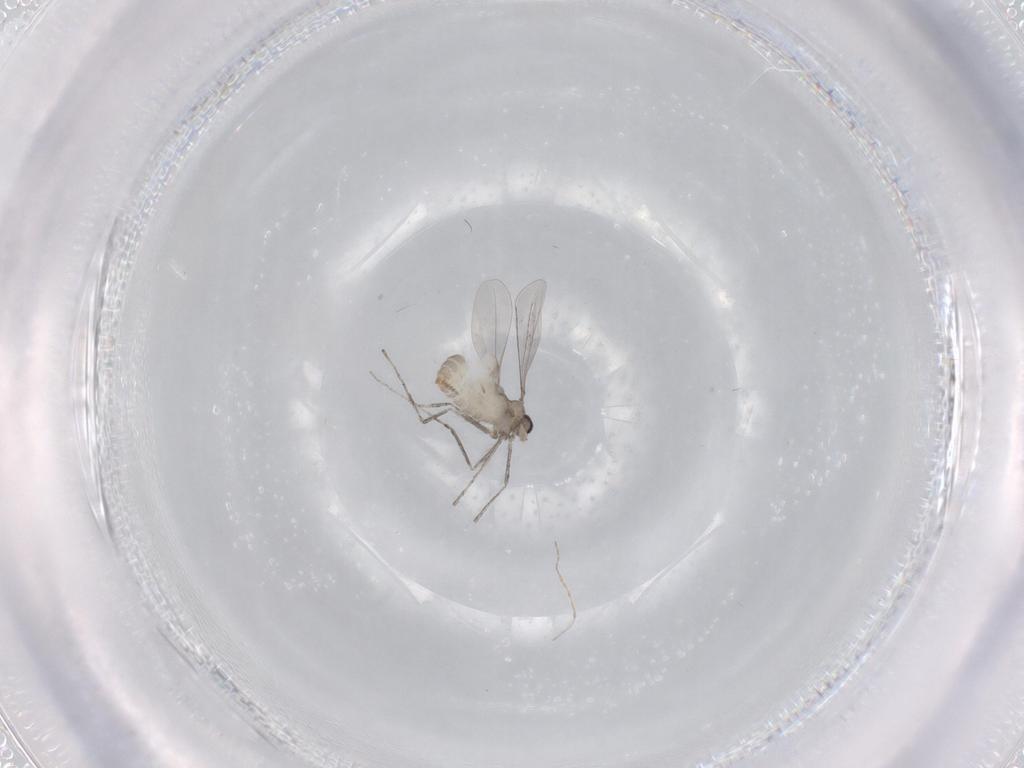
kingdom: Animalia
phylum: Arthropoda
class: Insecta
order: Diptera
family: Cecidomyiidae
